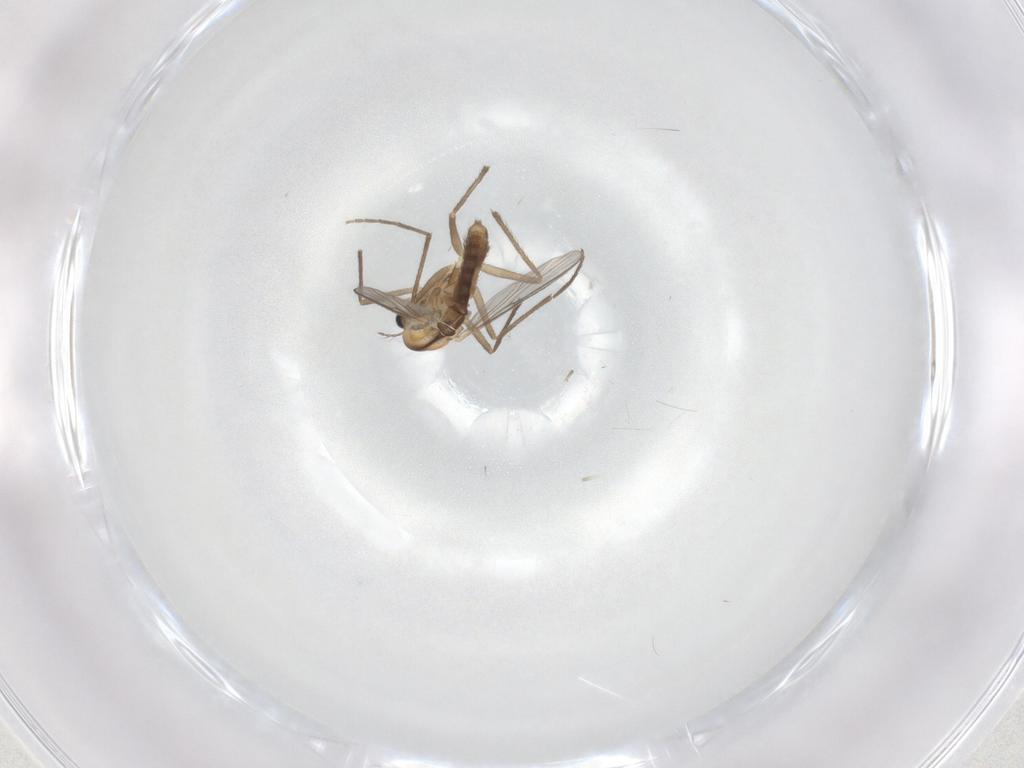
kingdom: Animalia
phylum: Arthropoda
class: Insecta
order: Diptera
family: Chironomidae
